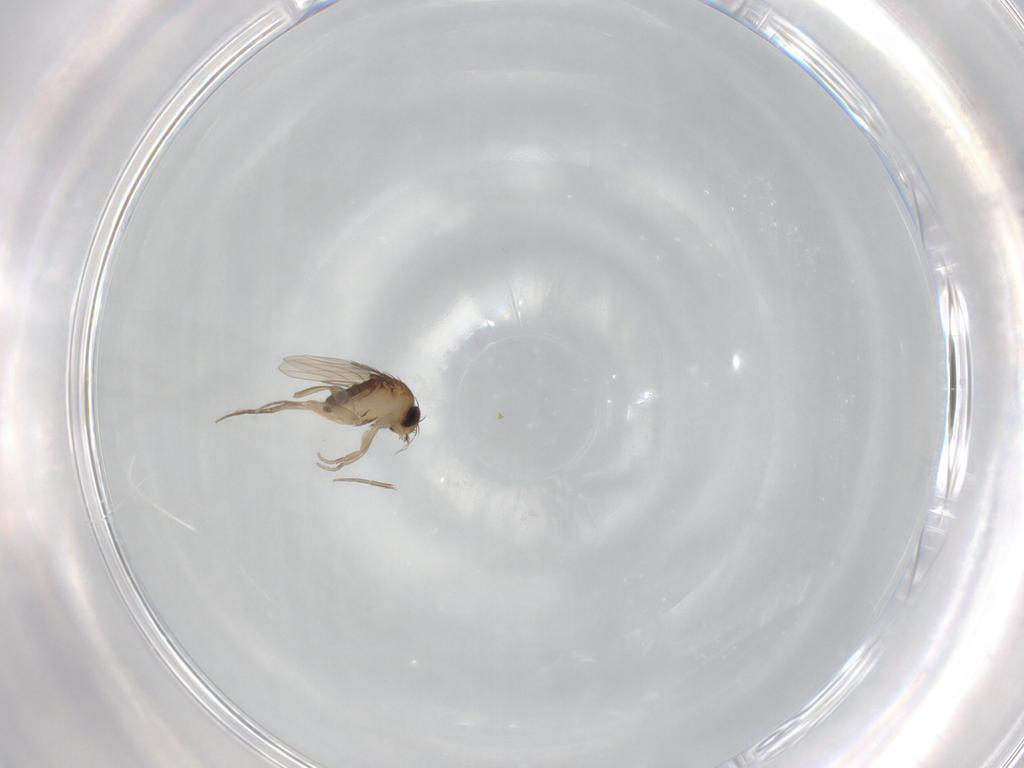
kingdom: Animalia
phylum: Arthropoda
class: Insecta
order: Diptera
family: Phoridae
